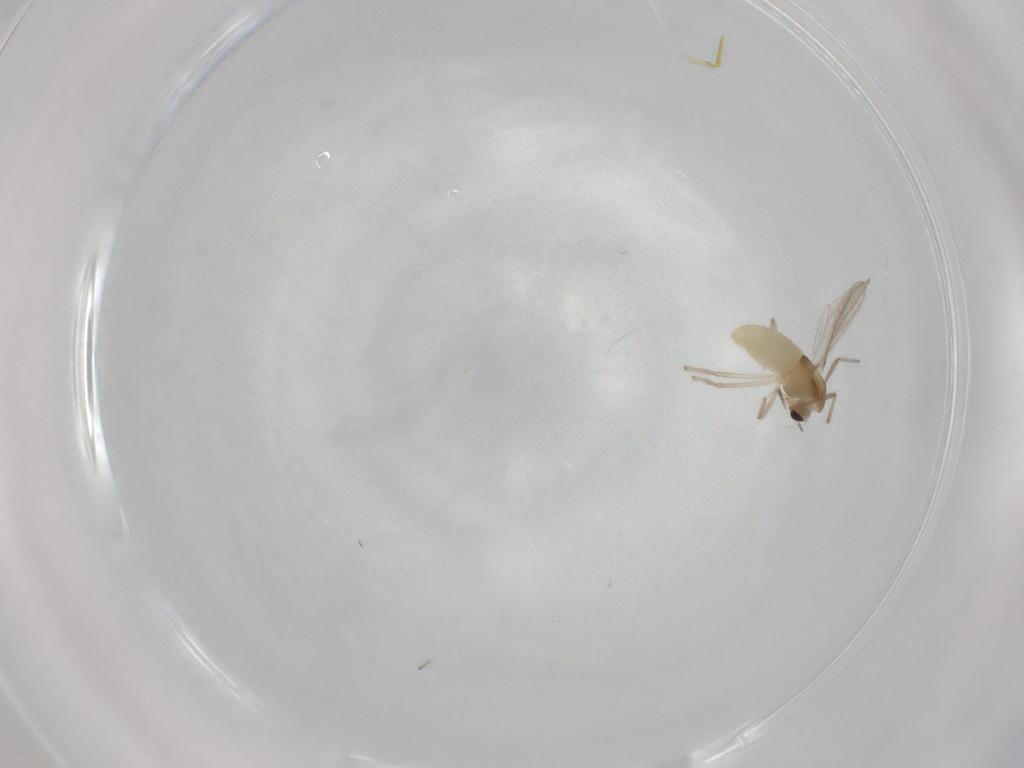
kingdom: Animalia
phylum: Arthropoda
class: Insecta
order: Diptera
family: Chironomidae
